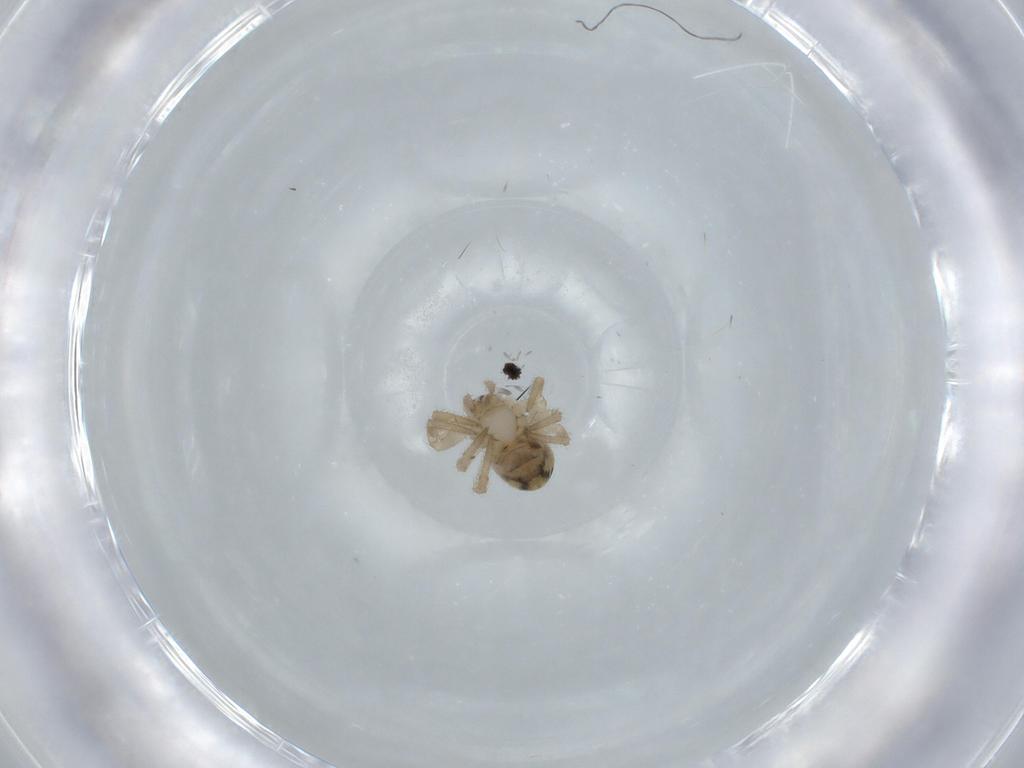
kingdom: Animalia
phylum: Arthropoda
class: Arachnida
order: Araneae
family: Araneidae
